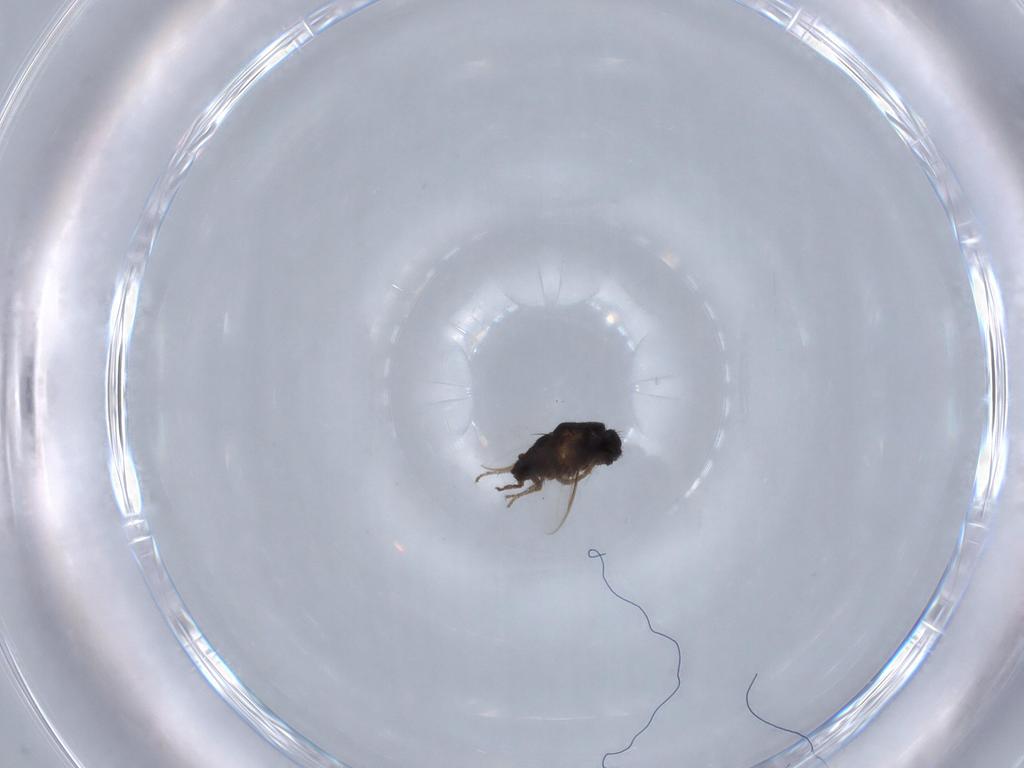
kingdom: Animalia
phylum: Arthropoda
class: Insecta
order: Diptera
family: Sphaeroceridae
